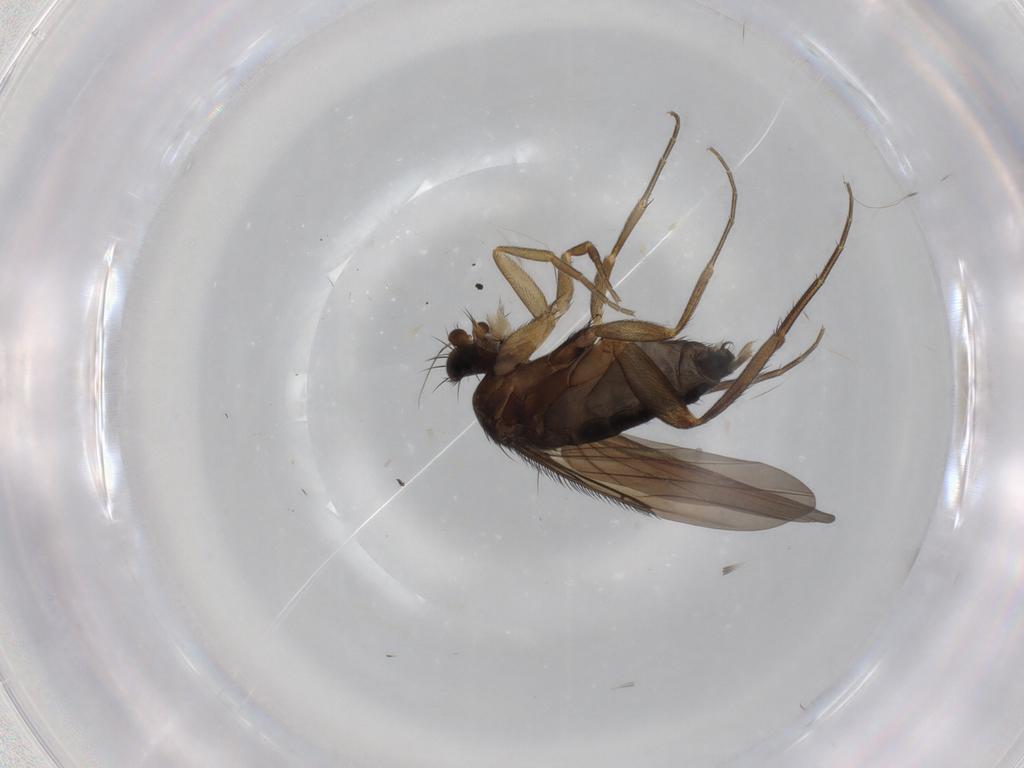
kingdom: Animalia
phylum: Arthropoda
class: Insecta
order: Diptera
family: Phoridae
